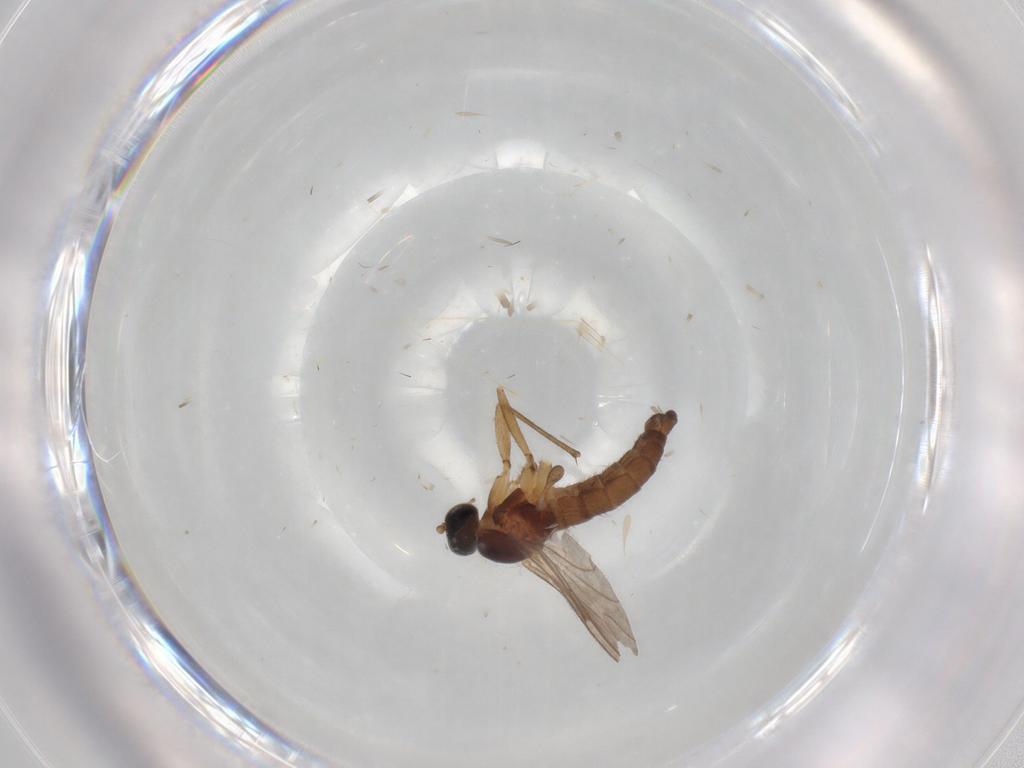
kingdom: Animalia
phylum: Arthropoda
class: Insecta
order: Diptera
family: Sciaridae
